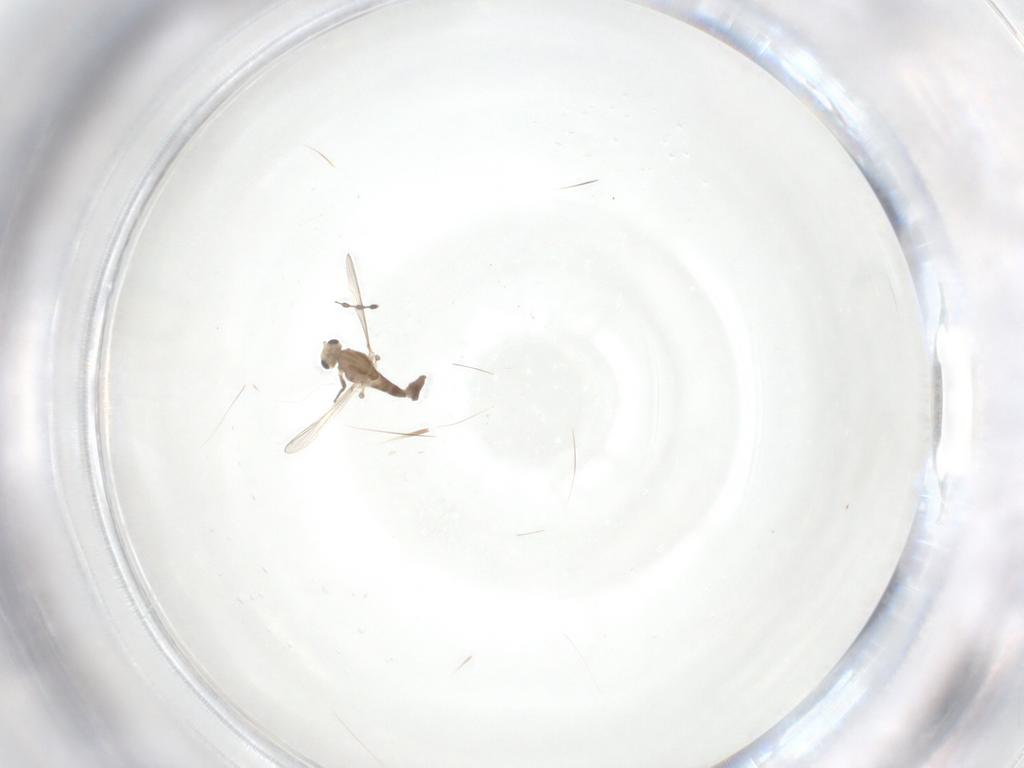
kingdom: Animalia
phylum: Arthropoda
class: Insecta
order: Diptera
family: Chironomidae
